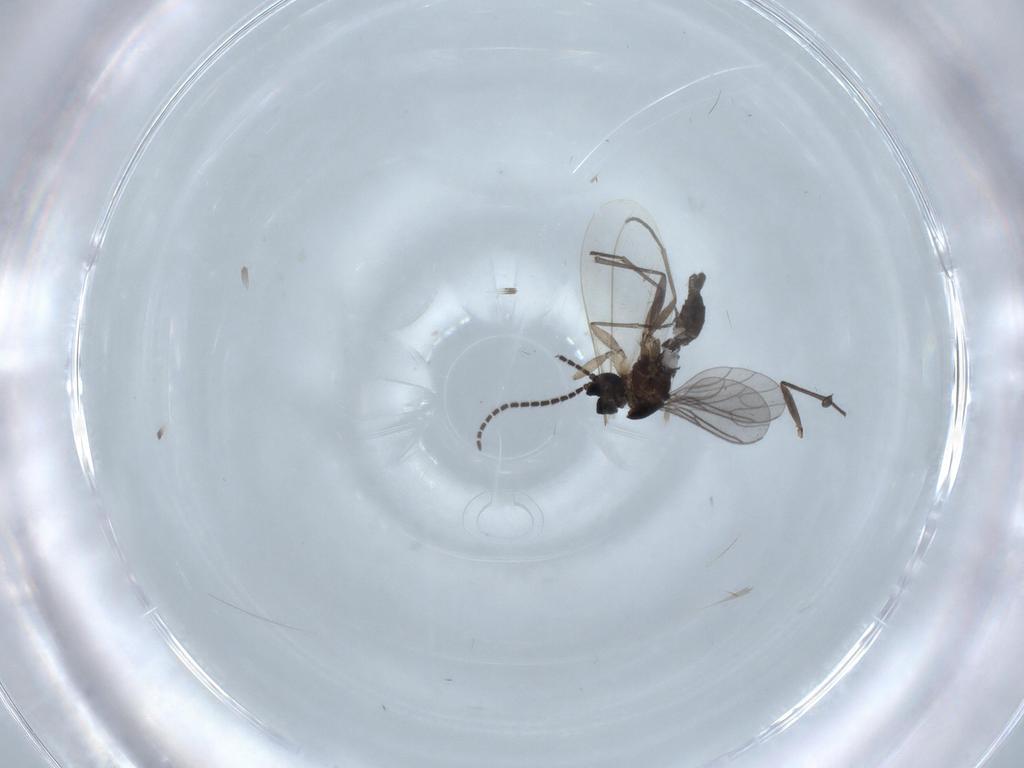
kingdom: Animalia
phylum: Arthropoda
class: Insecta
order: Diptera
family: Sciaridae
